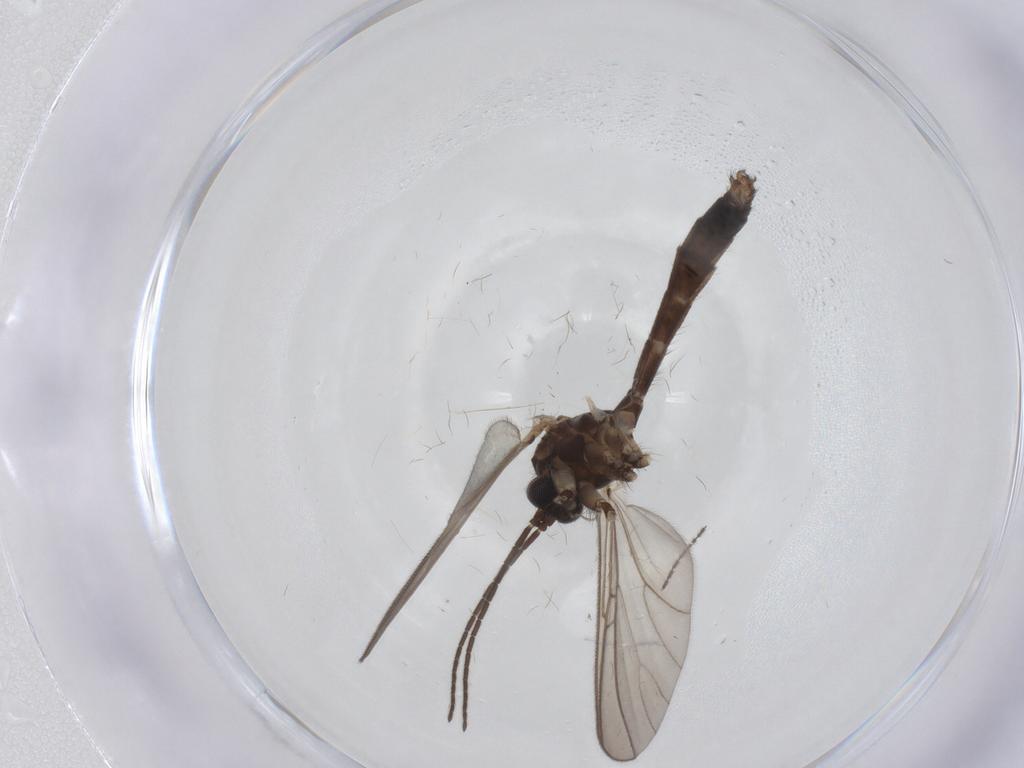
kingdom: Animalia
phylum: Arthropoda
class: Insecta
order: Diptera
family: Mycetophilidae
